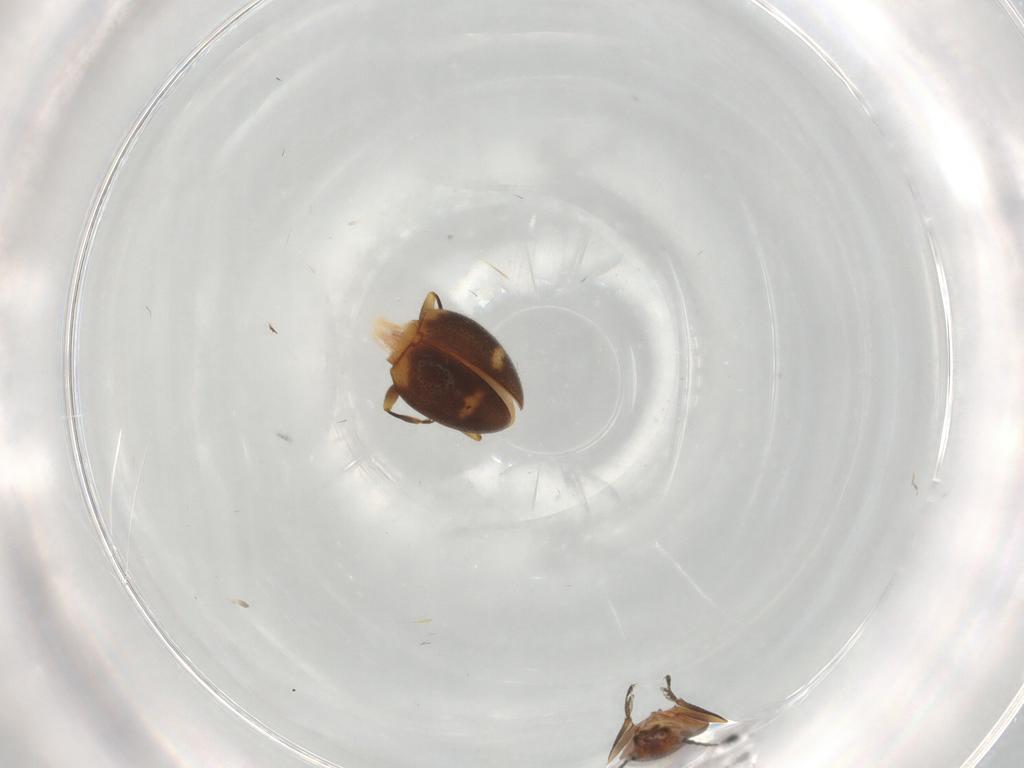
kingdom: Animalia
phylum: Arthropoda
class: Insecta
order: Coleoptera
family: Erotylidae
